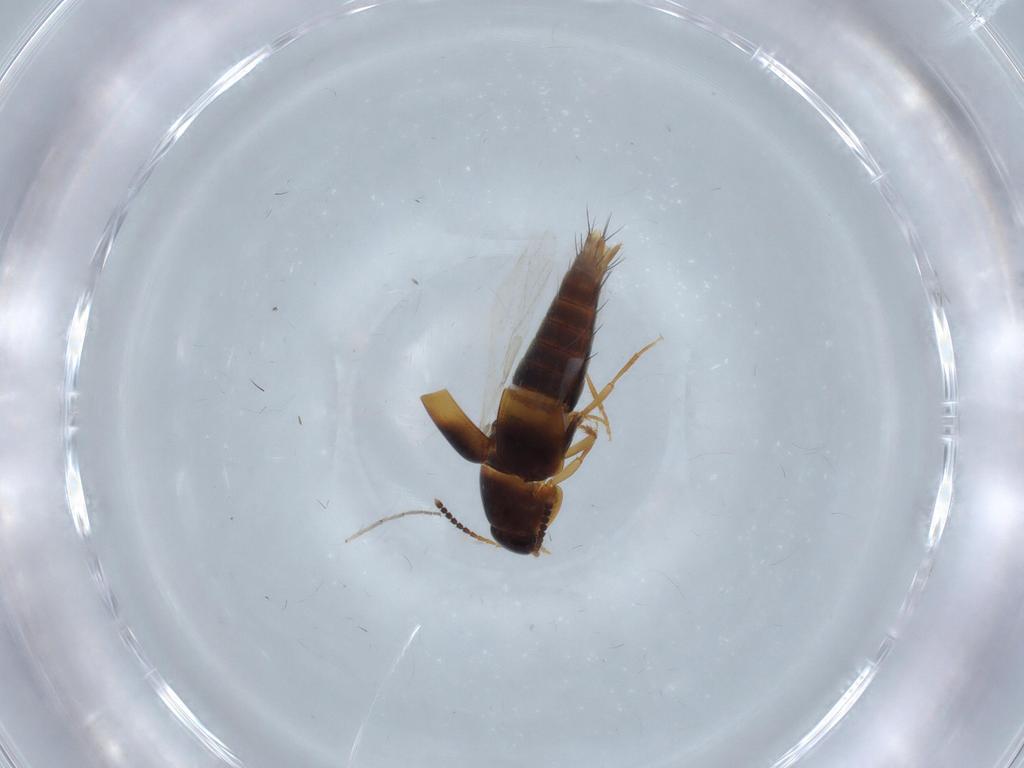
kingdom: Animalia
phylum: Arthropoda
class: Insecta
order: Coleoptera
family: Staphylinidae
